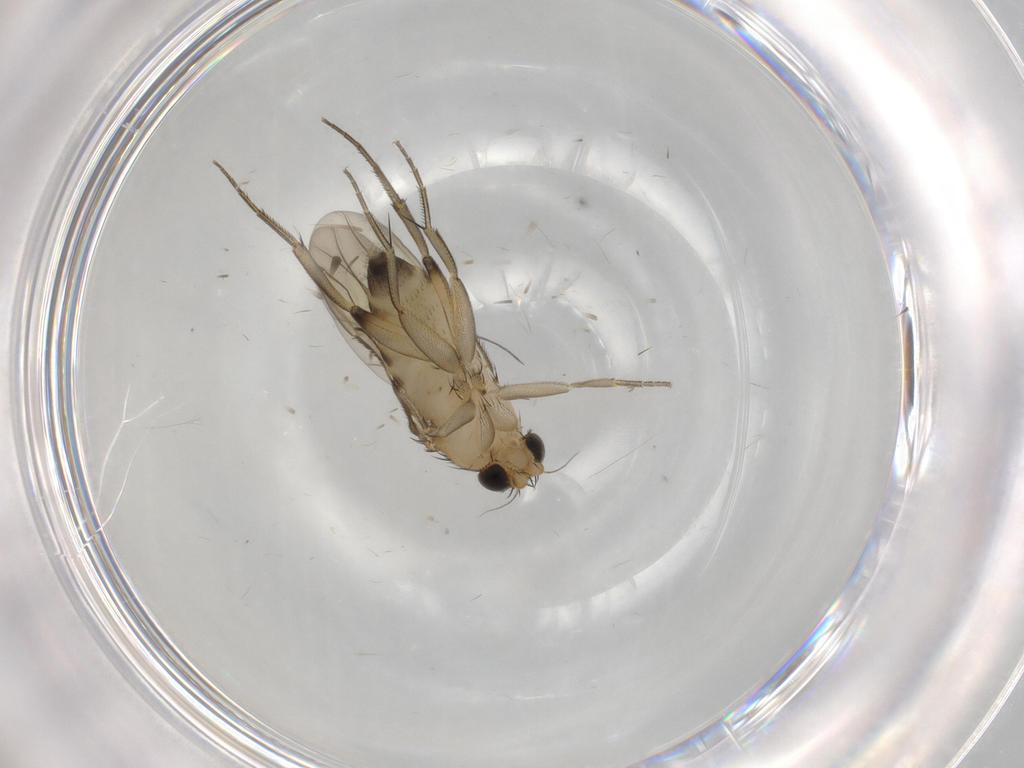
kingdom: Animalia
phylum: Arthropoda
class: Insecta
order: Diptera
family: Phoridae
